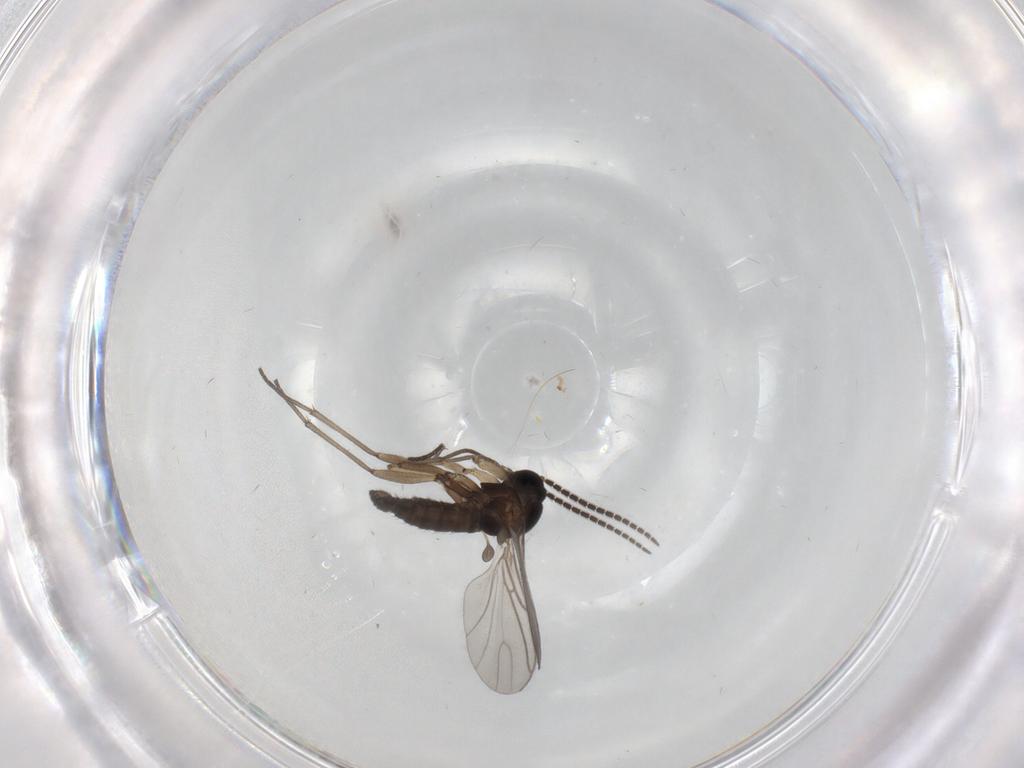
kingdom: Animalia
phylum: Arthropoda
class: Insecta
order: Diptera
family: Sciaridae
